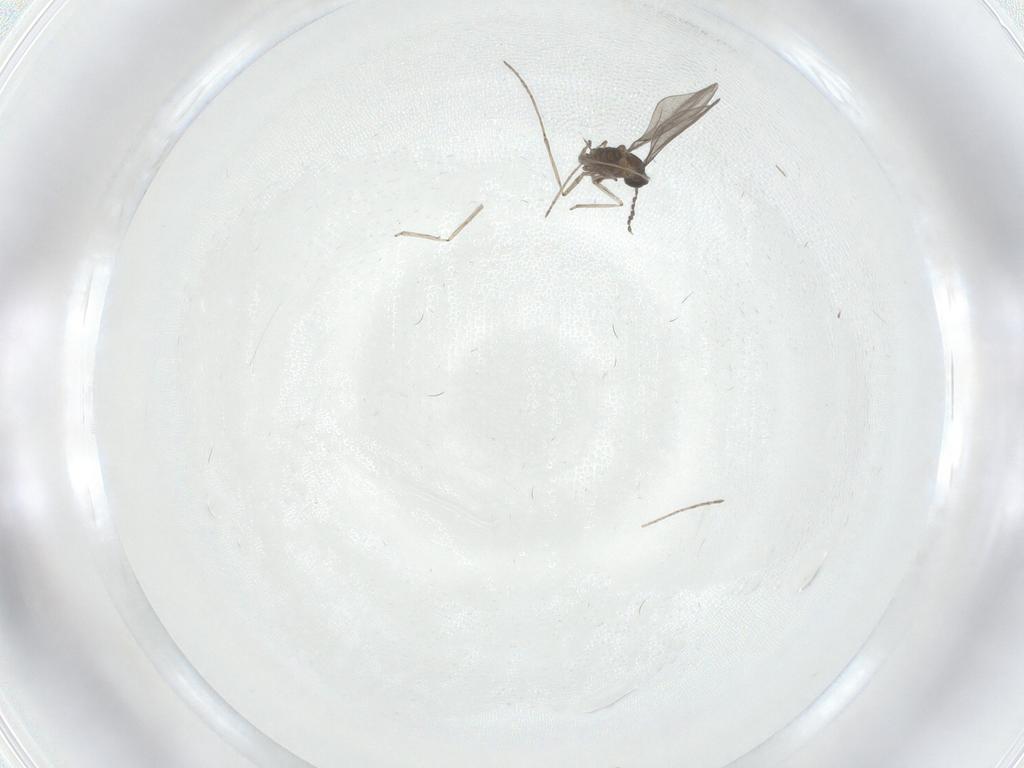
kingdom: Animalia
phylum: Arthropoda
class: Insecta
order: Diptera
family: Cecidomyiidae
